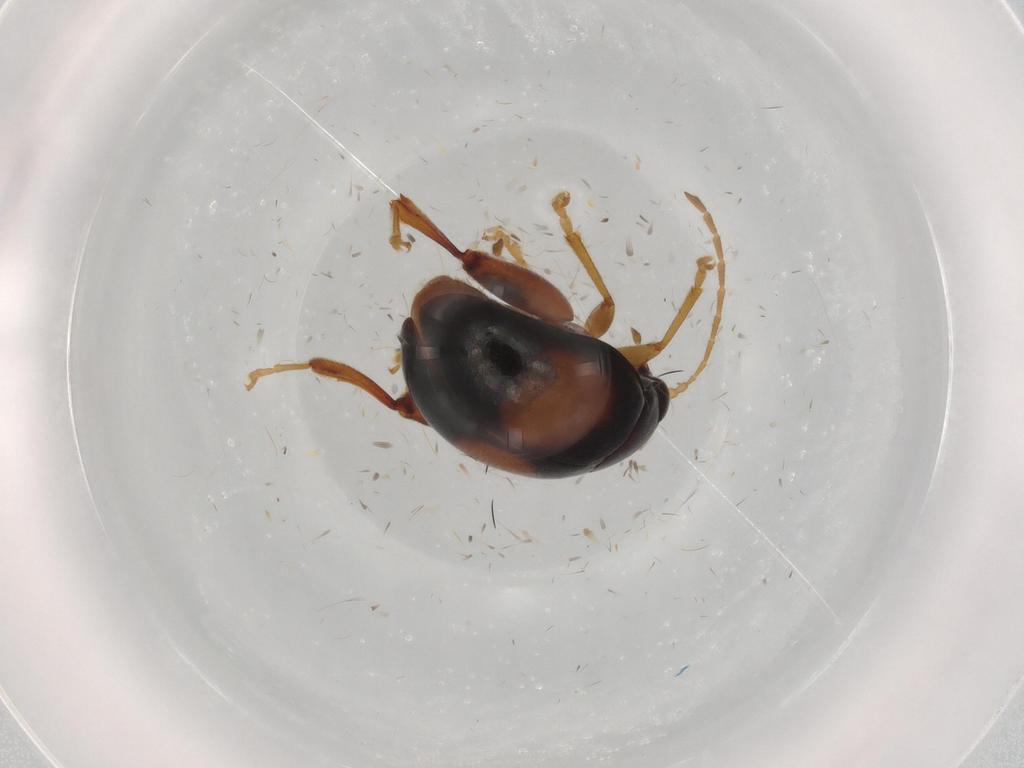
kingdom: Animalia
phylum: Arthropoda
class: Insecta
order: Coleoptera
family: Chrysomelidae
